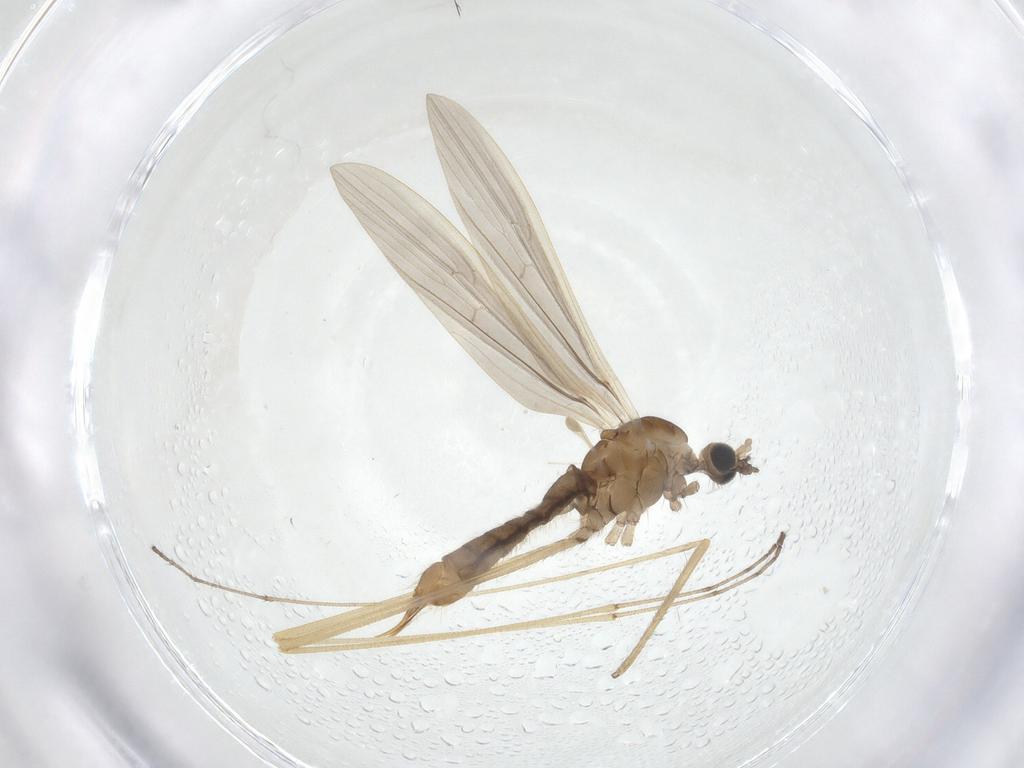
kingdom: Animalia
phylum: Arthropoda
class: Insecta
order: Diptera
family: Limoniidae
